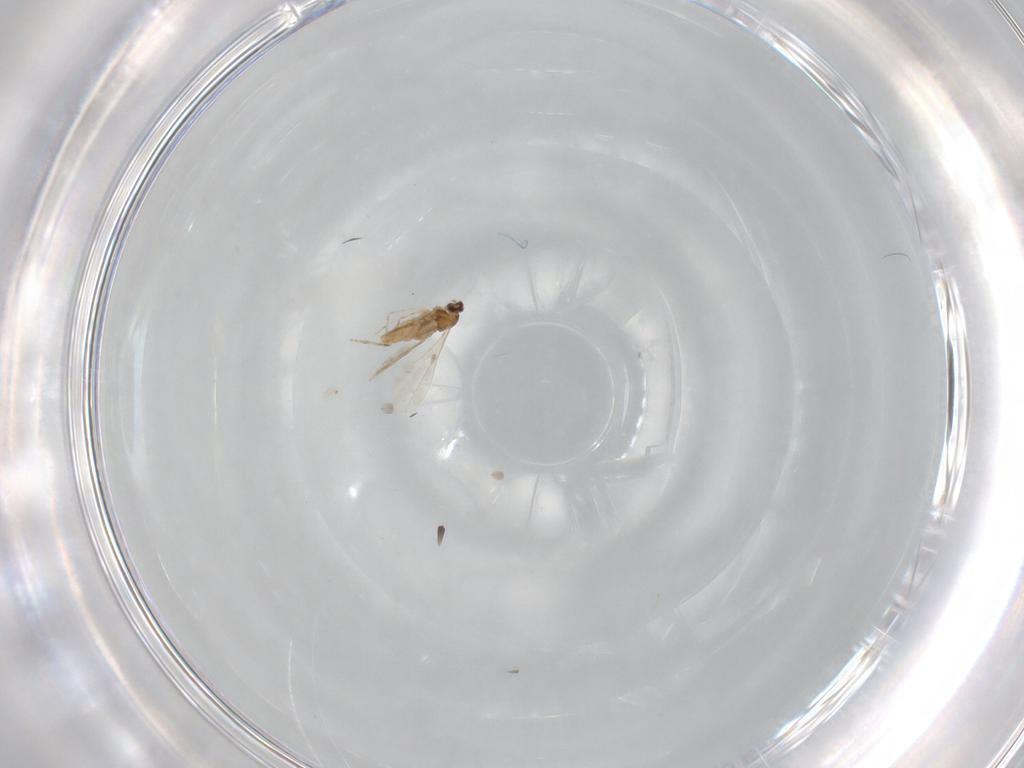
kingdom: Animalia
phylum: Arthropoda
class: Insecta
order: Diptera
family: Cecidomyiidae
